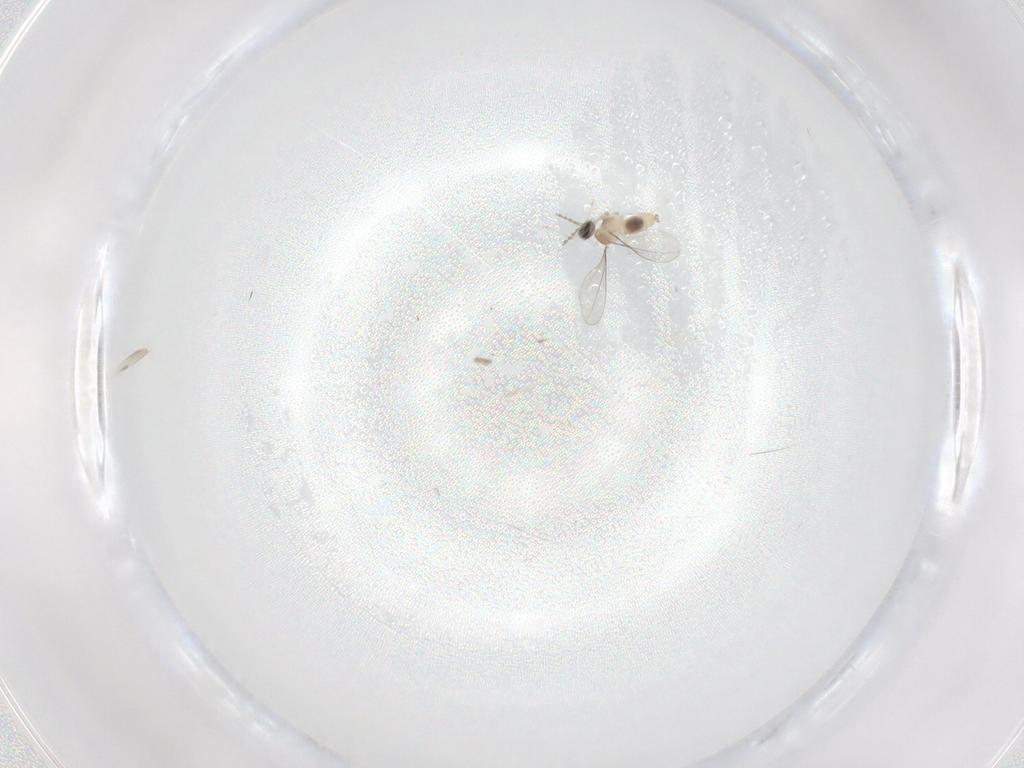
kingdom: Animalia
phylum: Arthropoda
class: Insecta
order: Diptera
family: Cecidomyiidae
